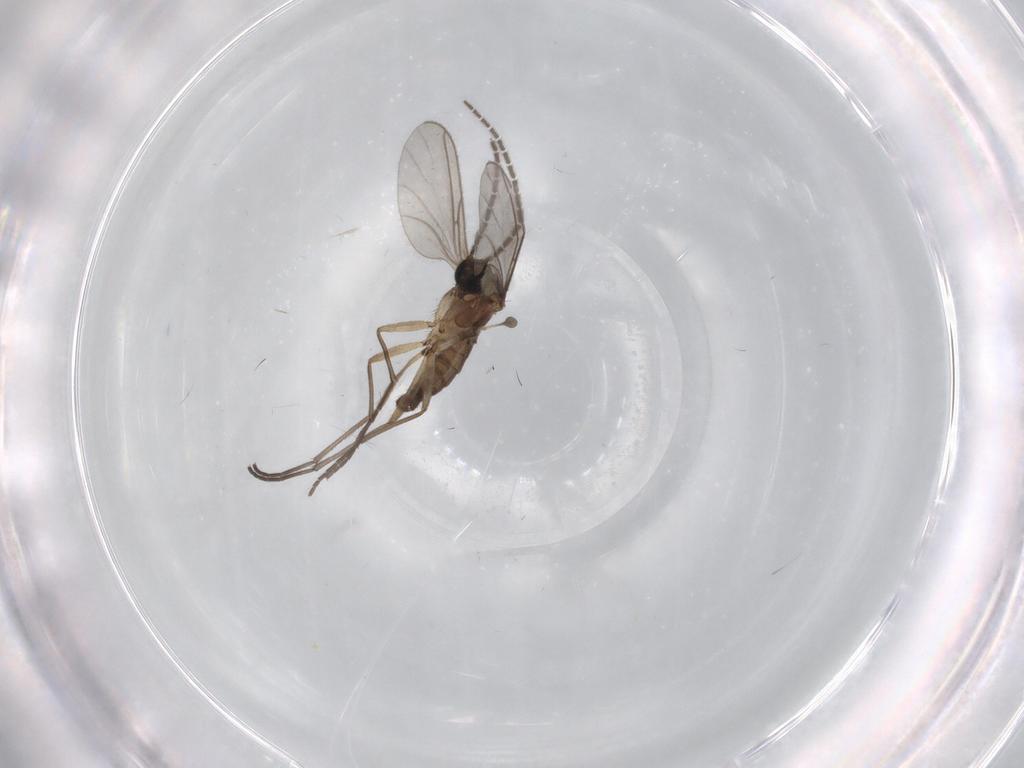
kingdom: Animalia
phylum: Arthropoda
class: Insecta
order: Diptera
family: Sciaridae
